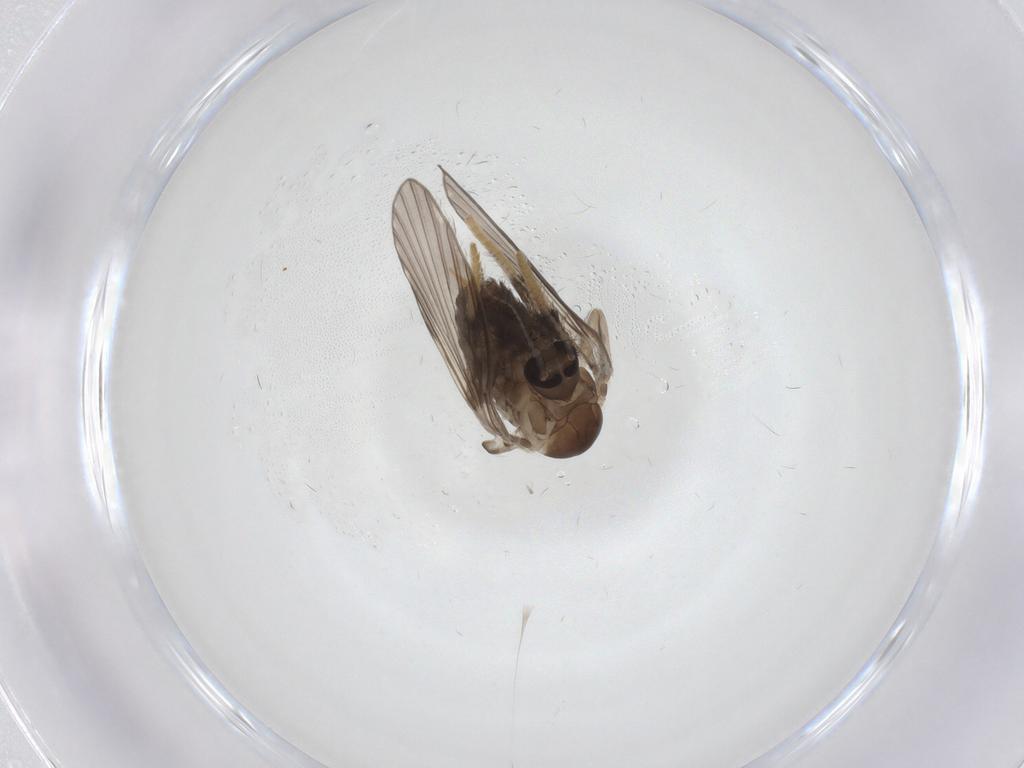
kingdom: Animalia
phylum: Arthropoda
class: Insecta
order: Diptera
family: Psychodidae
